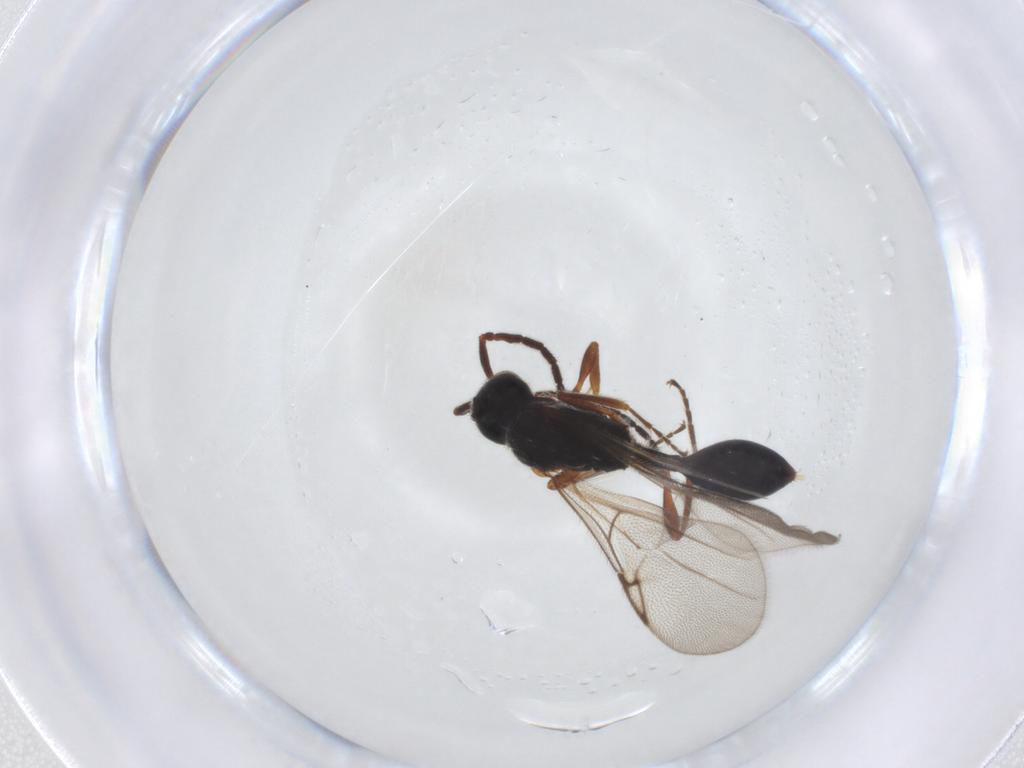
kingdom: Animalia
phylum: Arthropoda
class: Insecta
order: Hymenoptera
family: Diapriidae
